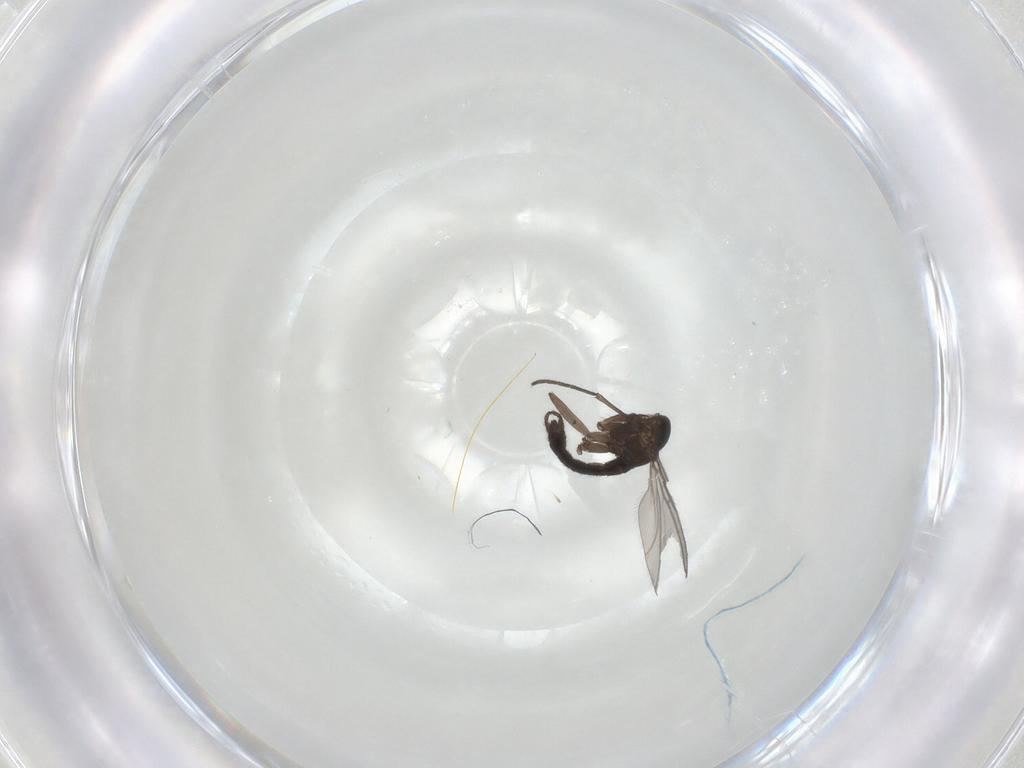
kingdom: Animalia
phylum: Arthropoda
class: Insecta
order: Diptera
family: Sciaridae
